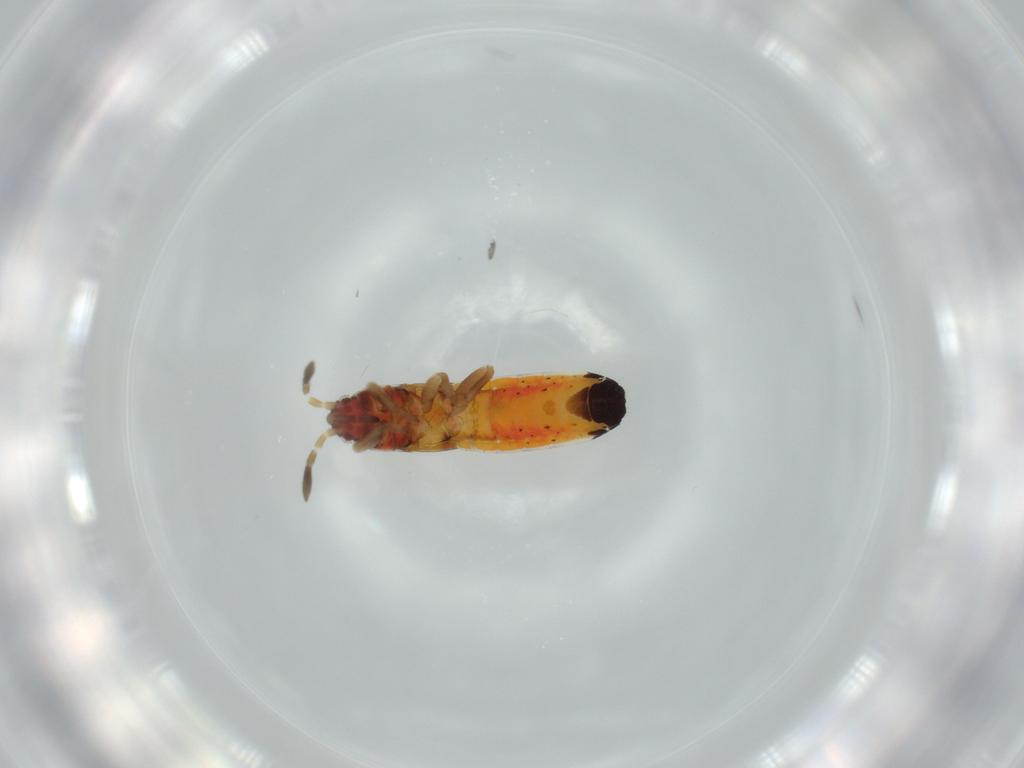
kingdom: Animalia
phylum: Arthropoda
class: Insecta
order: Hemiptera
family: Blissidae
